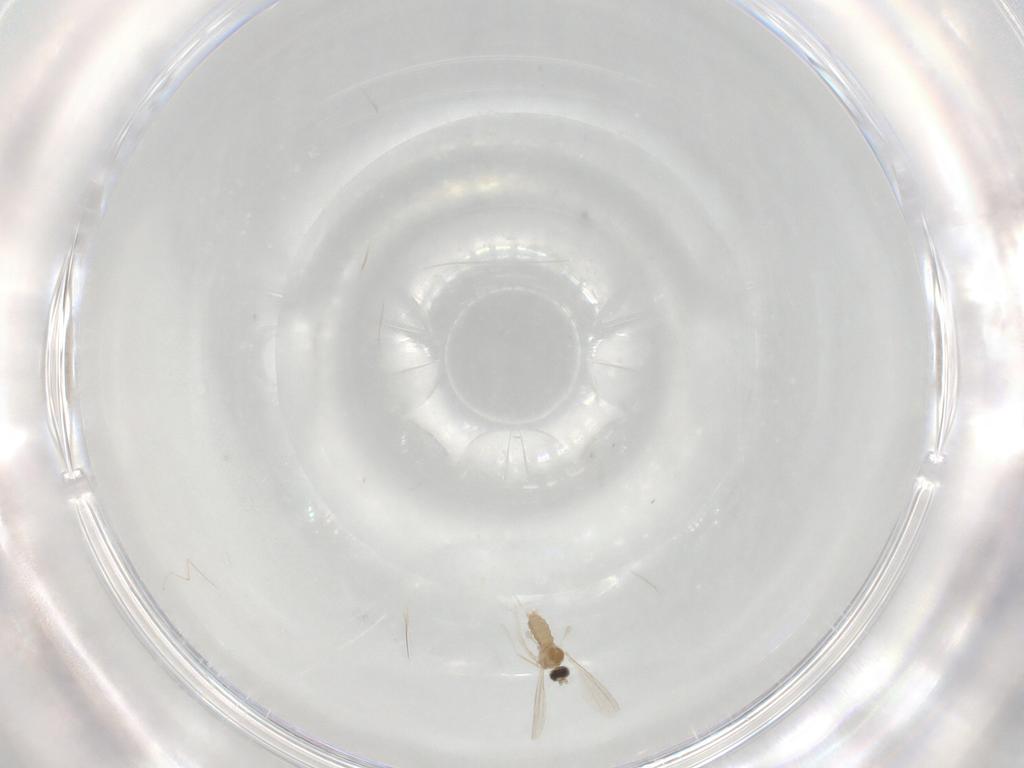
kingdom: Animalia
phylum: Arthropoda
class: Insecta
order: Diptera
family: Cecidomyiidae
